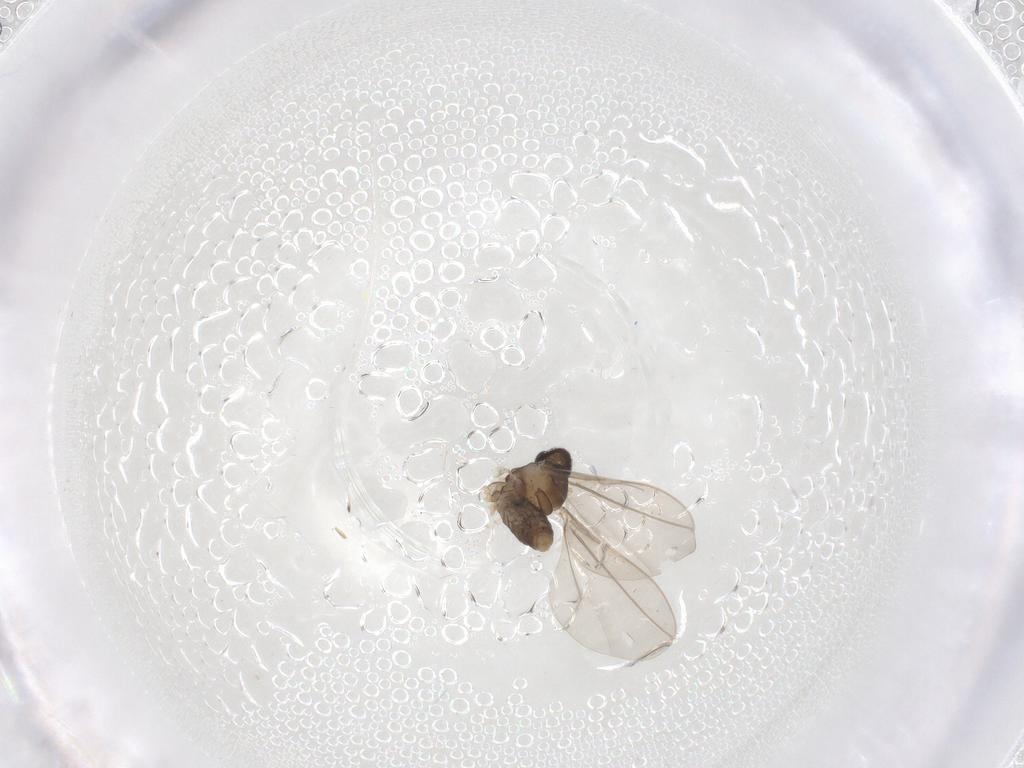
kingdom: Animalia
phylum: Arthropoda
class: Insecta
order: Diptera
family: Cecidomyiidae
